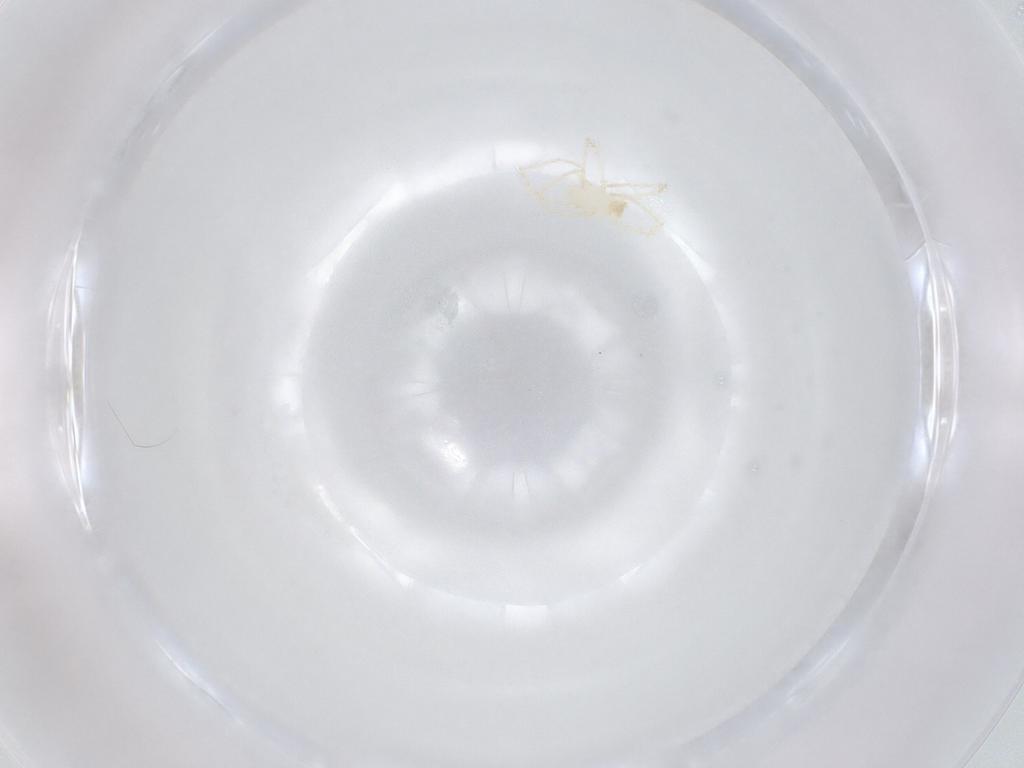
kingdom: Animalia
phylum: Arthropoda
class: Arachnida
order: Trombidiformes
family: Erythraeidae
